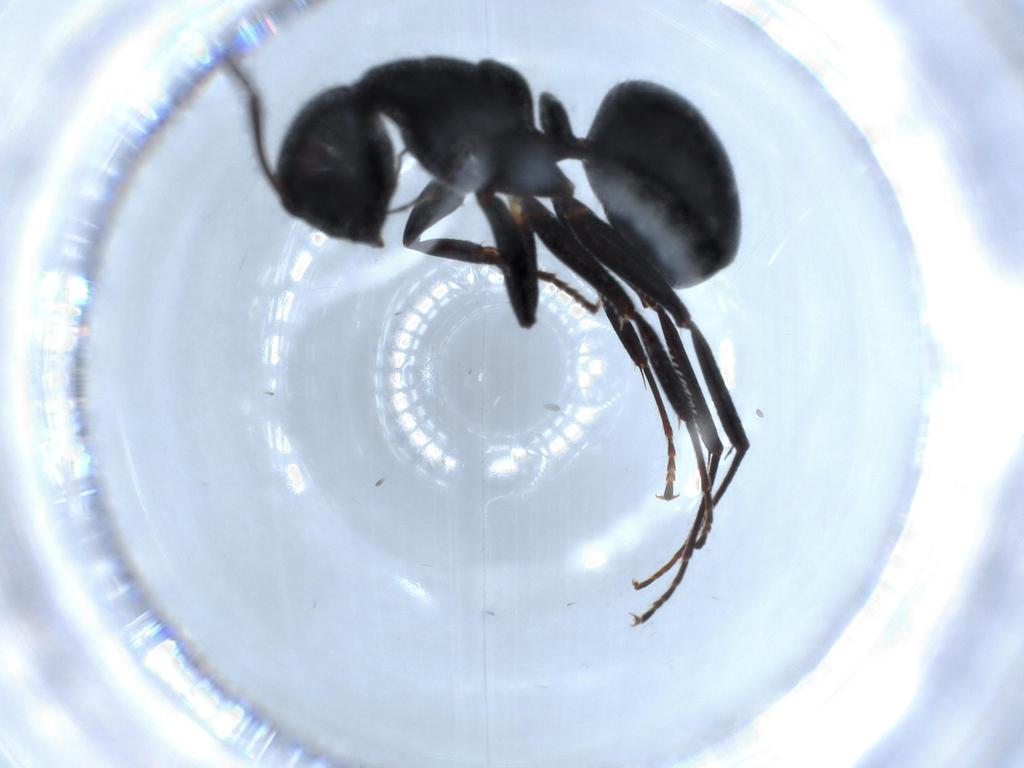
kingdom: Animalia
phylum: Arthropoda
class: Insecta
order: Hymenoptera
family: Formicidae
